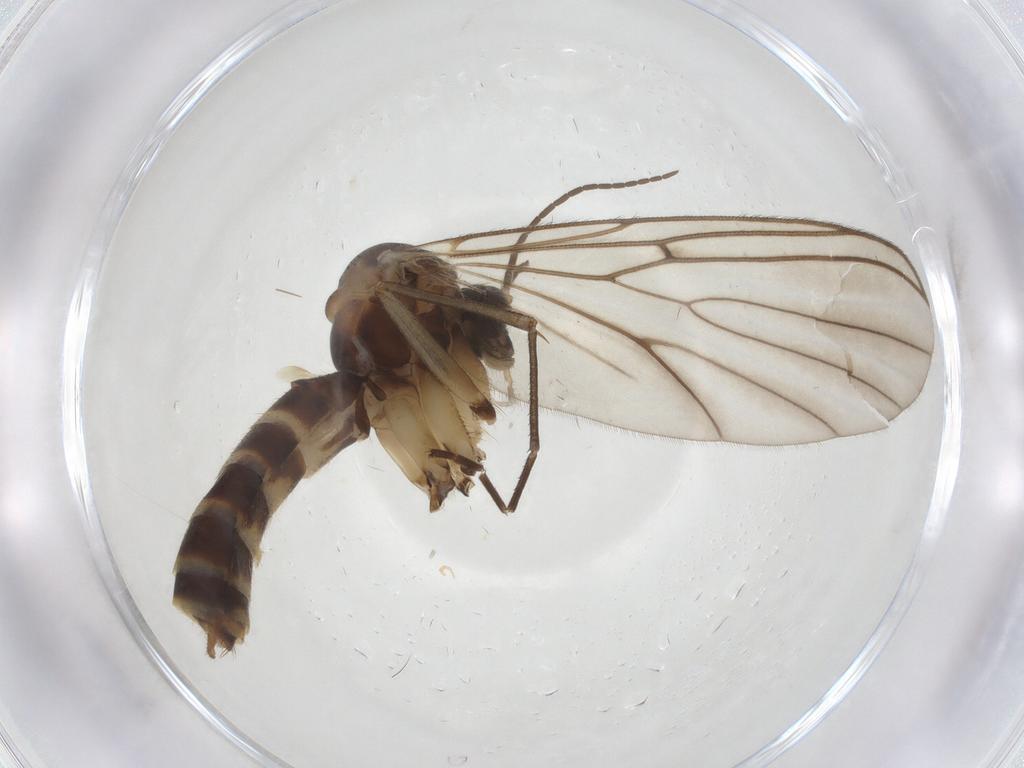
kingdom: Animalia
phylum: Arthropoda
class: Insecta
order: Diptera
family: Mycetophilidae
